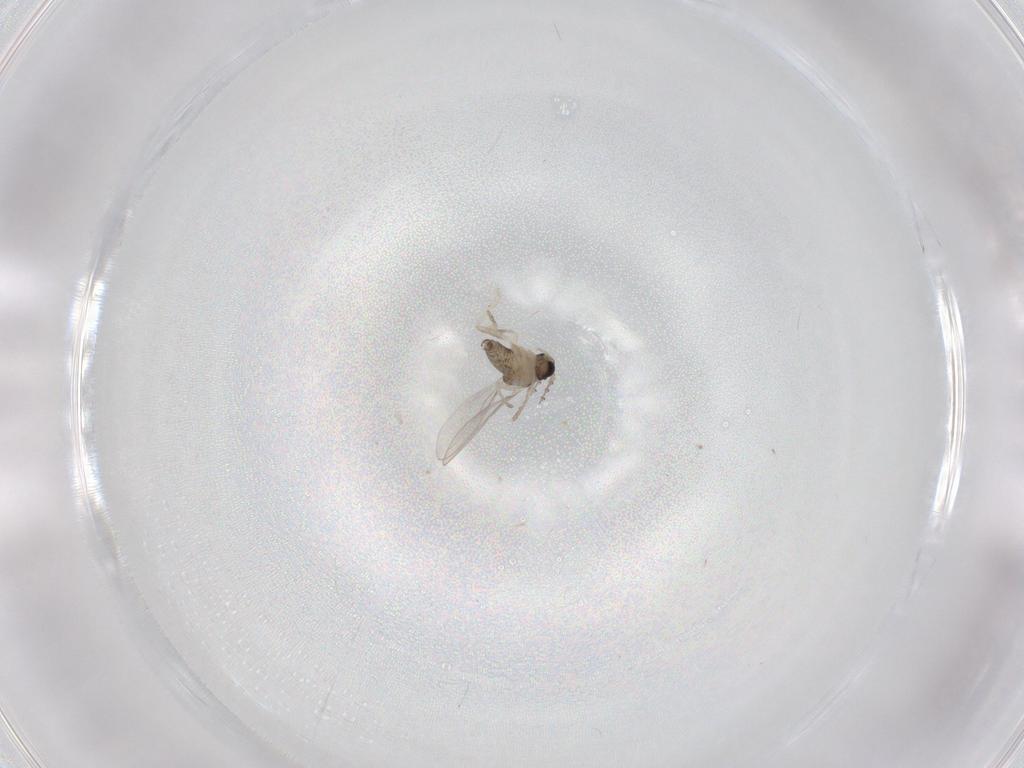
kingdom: Animalia
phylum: Arthropoda
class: Insecta
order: Diptera
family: Cecidomyiidae
